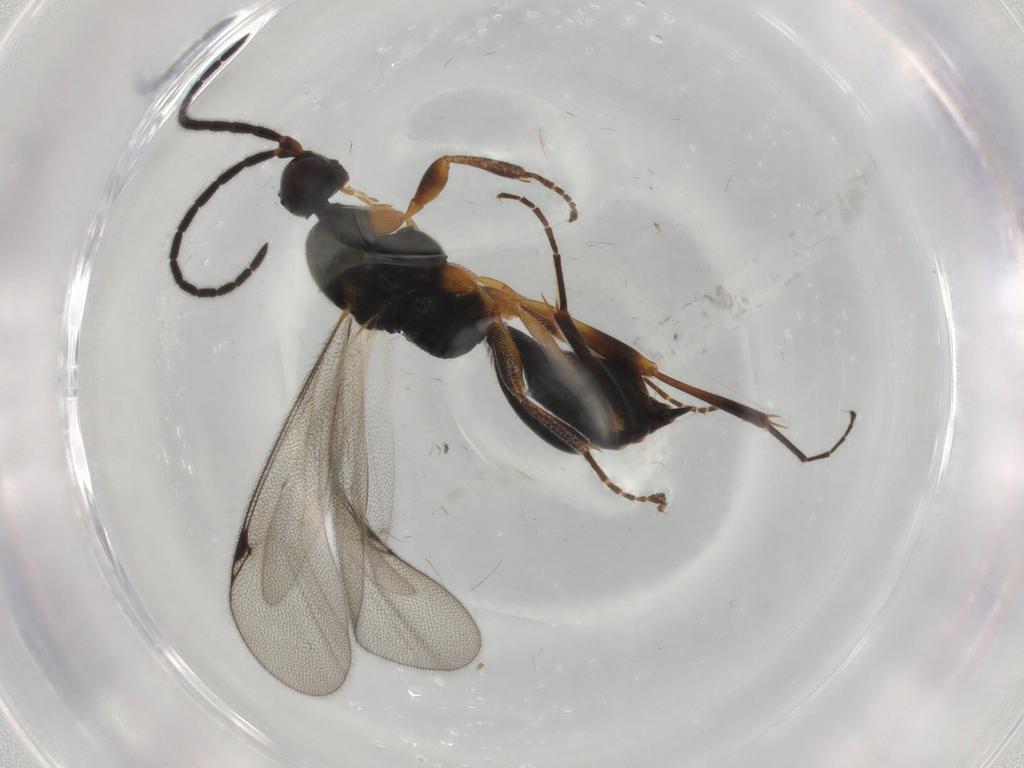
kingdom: Animalia
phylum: Arthropoda
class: Insecta
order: Hymenoptera
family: Proctotrupidae
